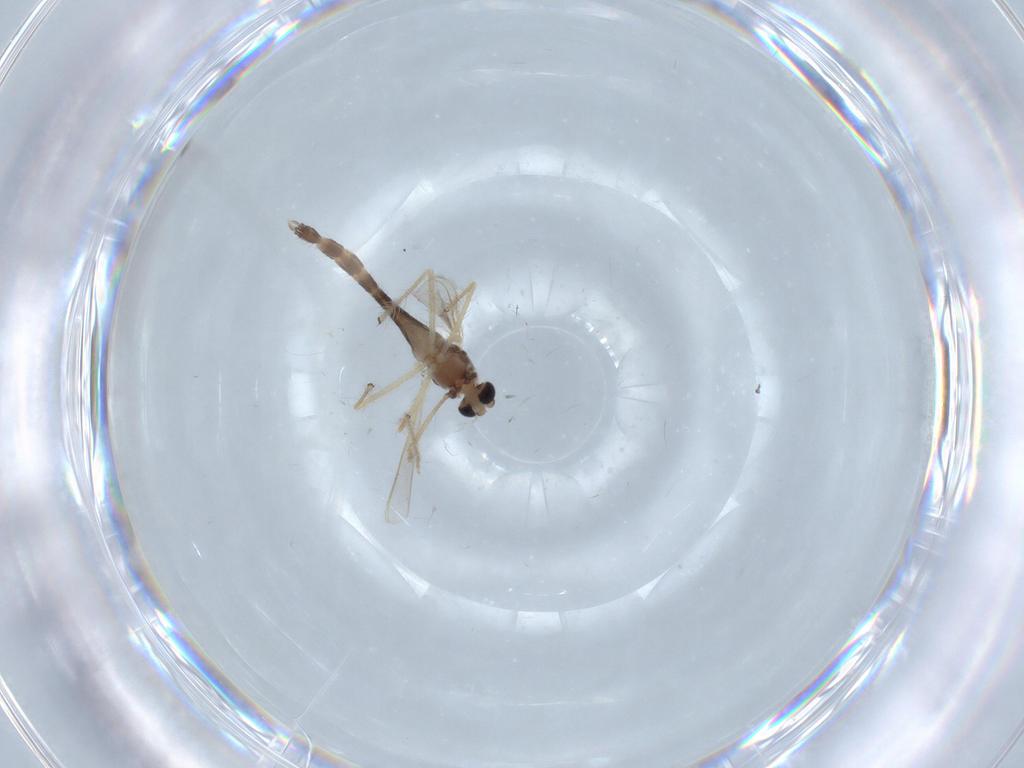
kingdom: Animalia
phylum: Arthropoda
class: Insecta
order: Diptera
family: Chironomidae
